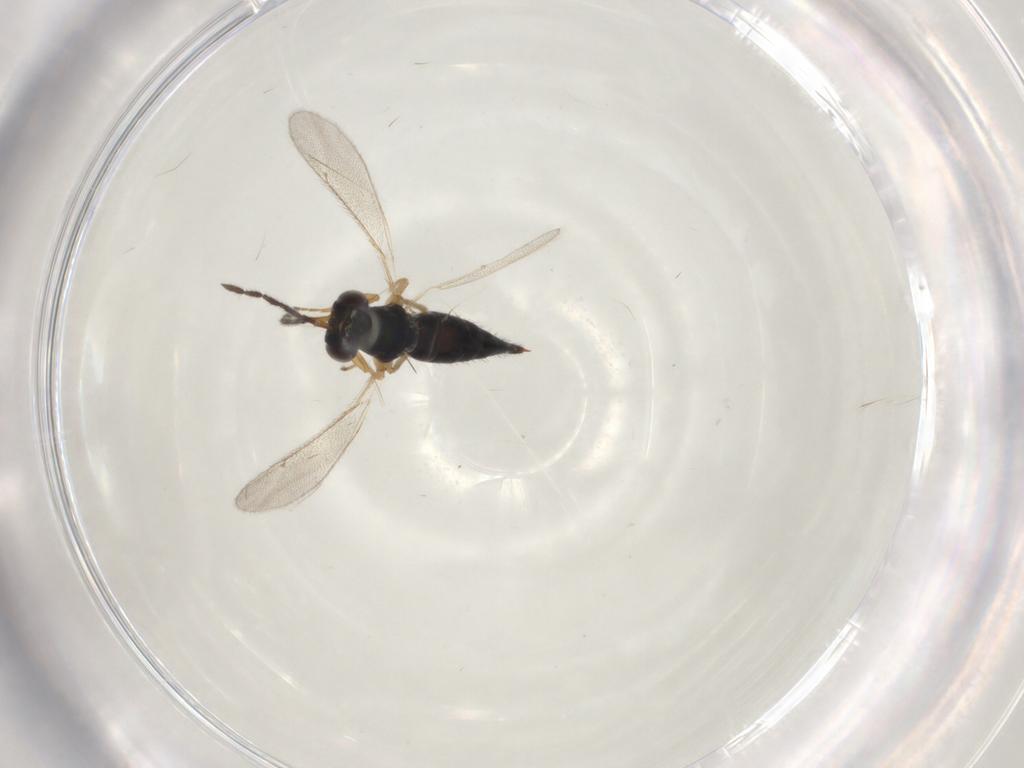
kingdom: Animalia
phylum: Arthropoda
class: Insecta
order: Hymenoptera
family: Eulophidae
